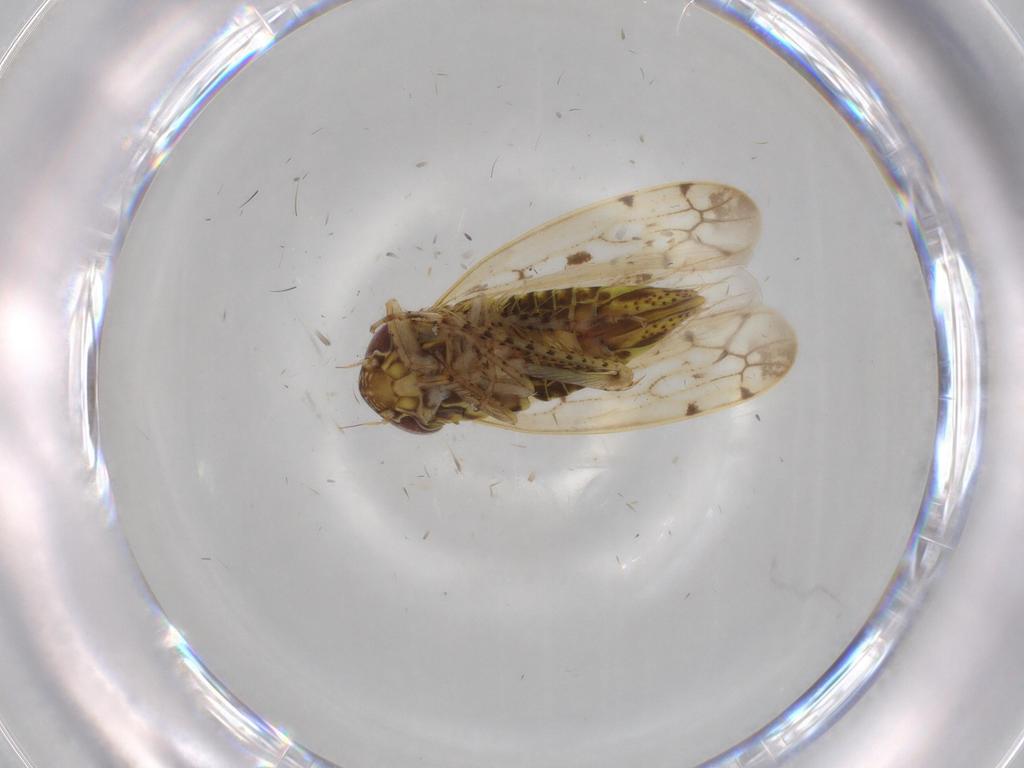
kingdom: Animalia
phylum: Arthropoda
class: Insecta
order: Hemiptera
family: Cicadellidae
